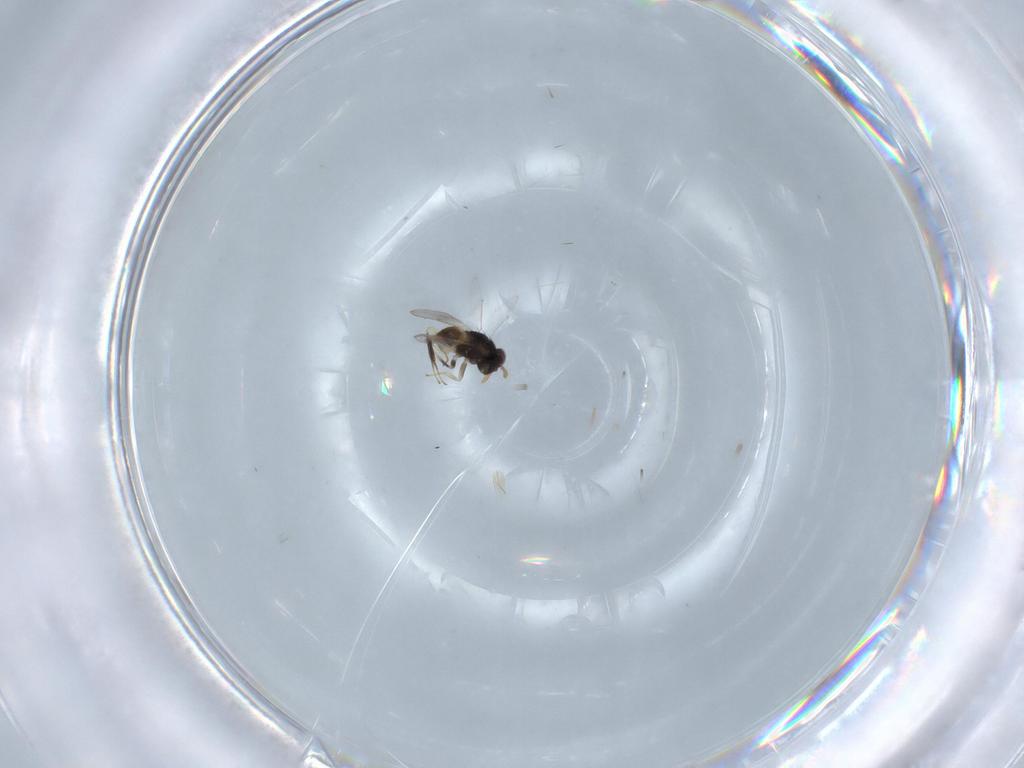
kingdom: Animalia
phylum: Arthropoda
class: Insecta
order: Hymenoptera
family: Aphelinidae
